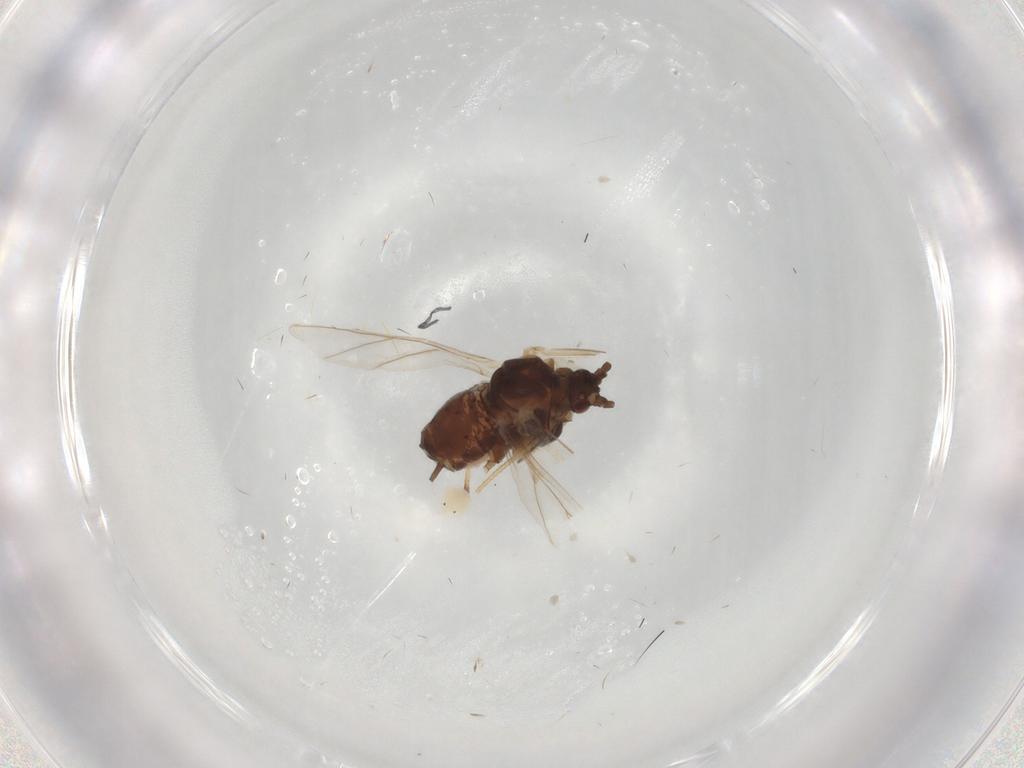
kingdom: Animalia
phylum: Arthropoda
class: Insecta
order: Hemiptera
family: Aphididae
